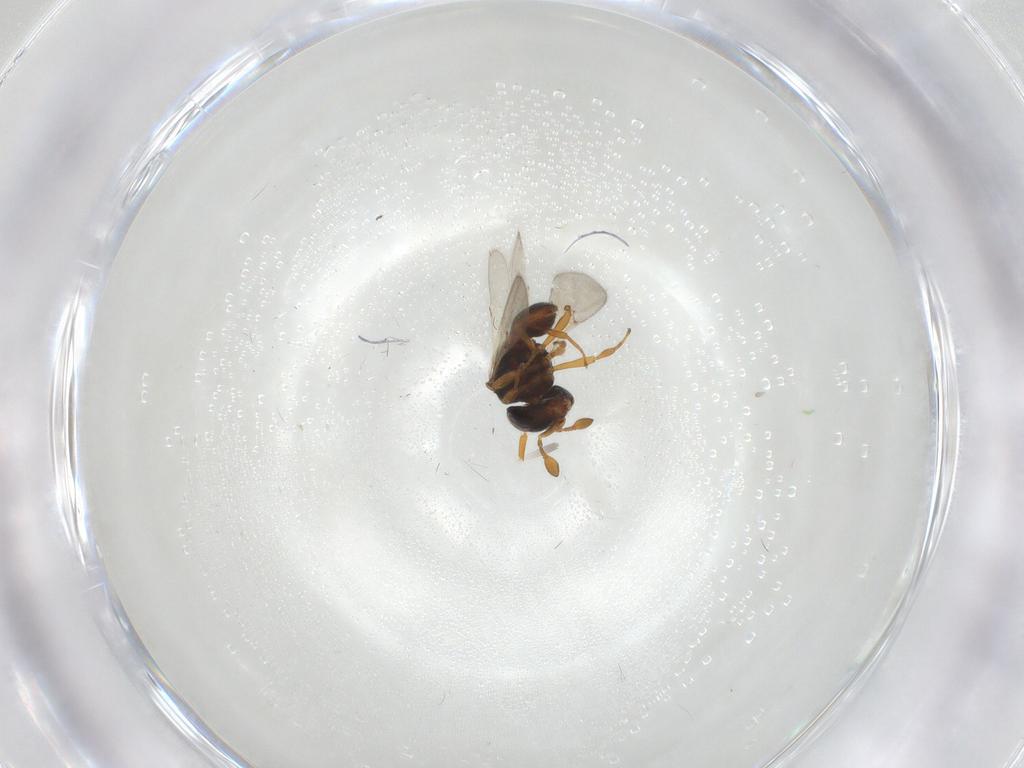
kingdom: Animalia
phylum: Arthropoda
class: Insecta
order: Hymenoptera
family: Scelionidae
